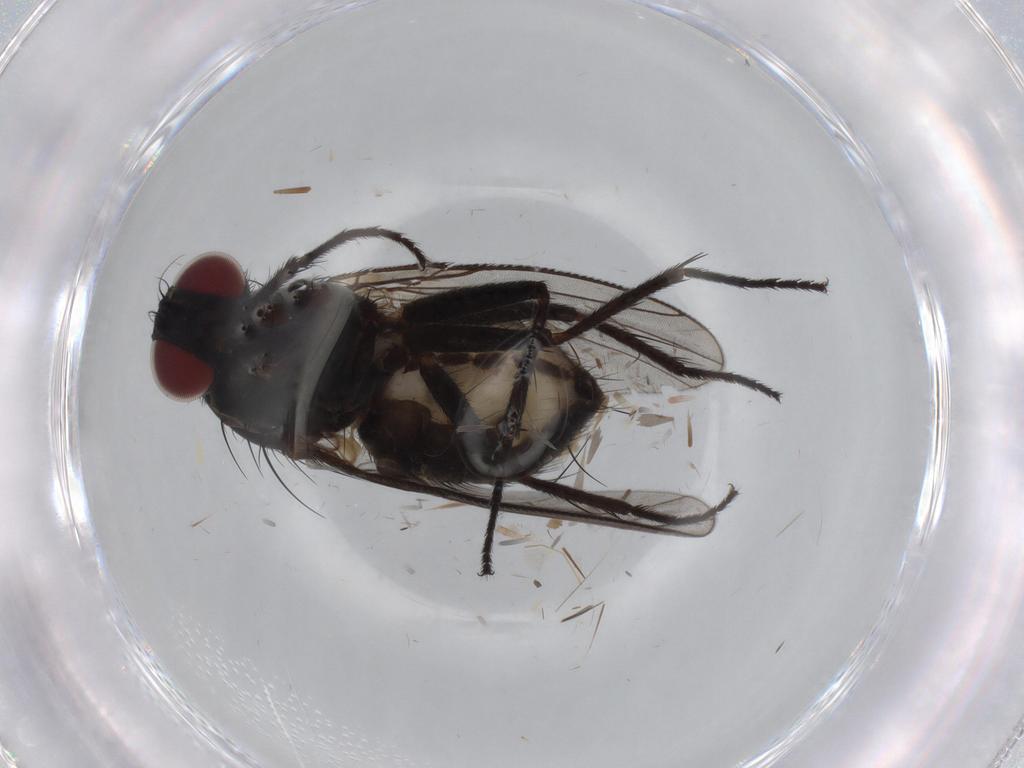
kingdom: Animalia
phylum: Arthropoda
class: Insecta
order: Diptera
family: Muscidae
